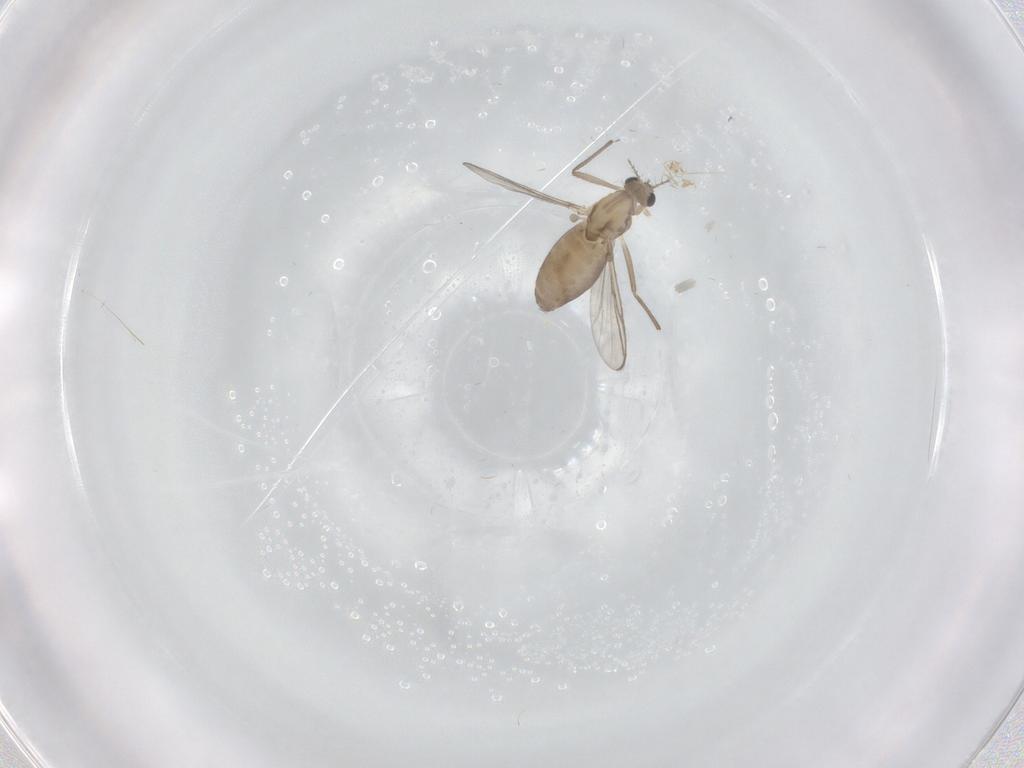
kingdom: Animalia
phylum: Arthropoda
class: Insecta
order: Diptera
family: Chironomidae
